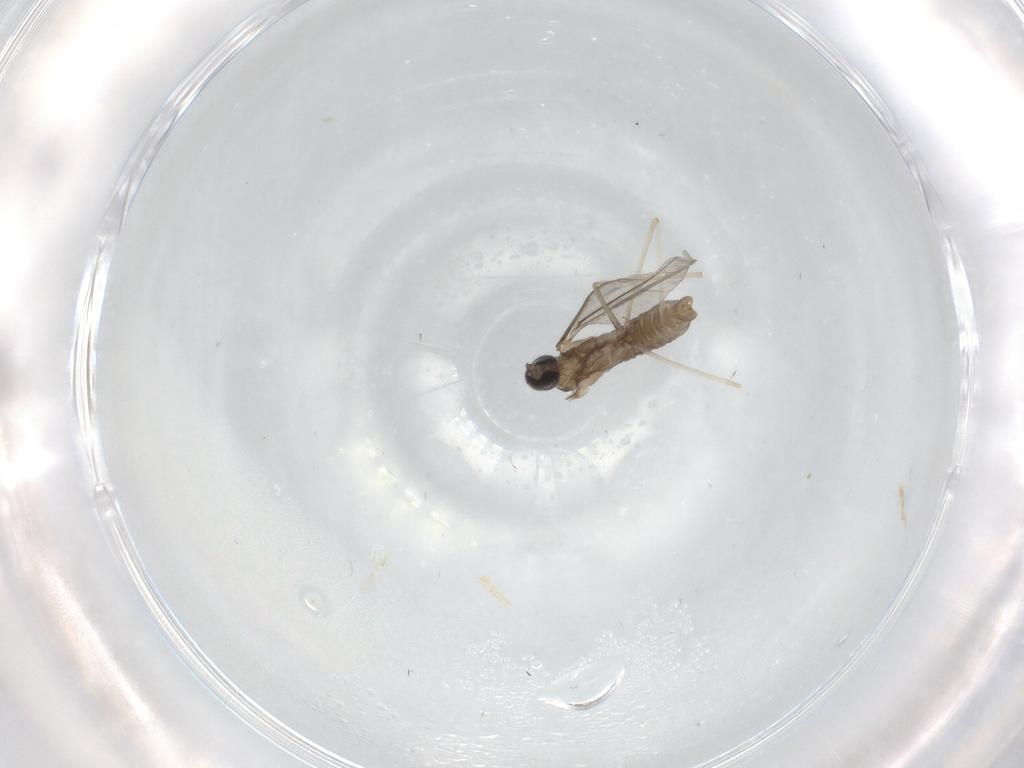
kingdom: Animalia
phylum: Arthropoda
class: Insecta
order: Diptera
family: Cecidomyiidae
